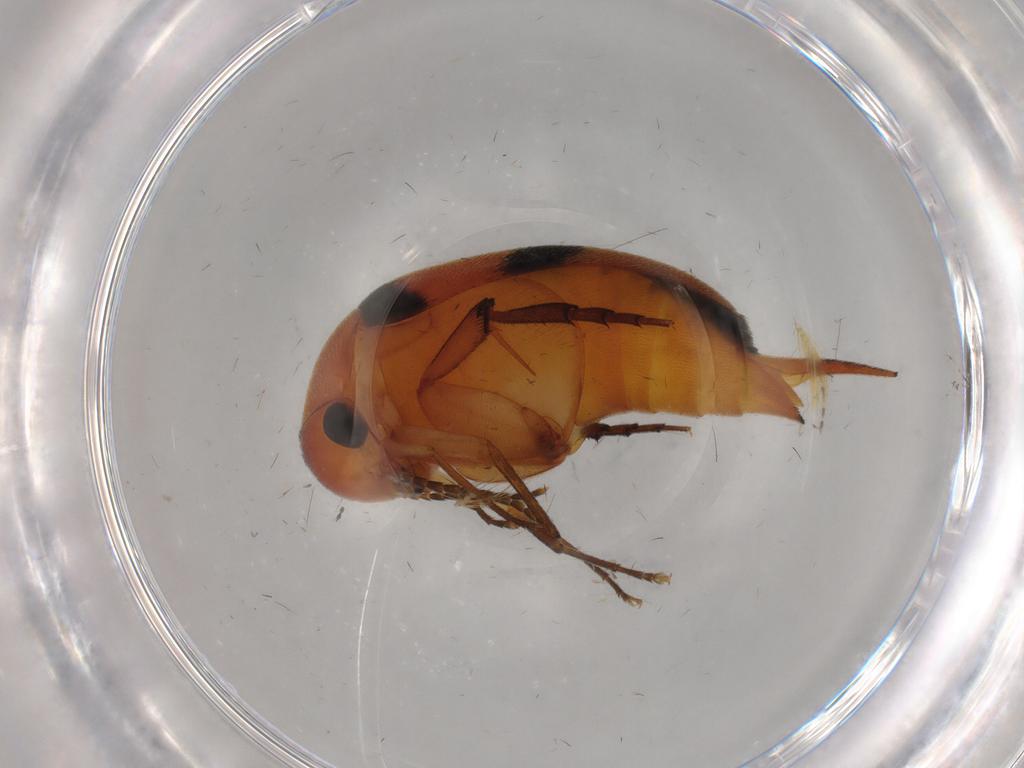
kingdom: Animalia
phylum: Arthropoda
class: Insecta
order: Coleoptera
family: Mordellidae
